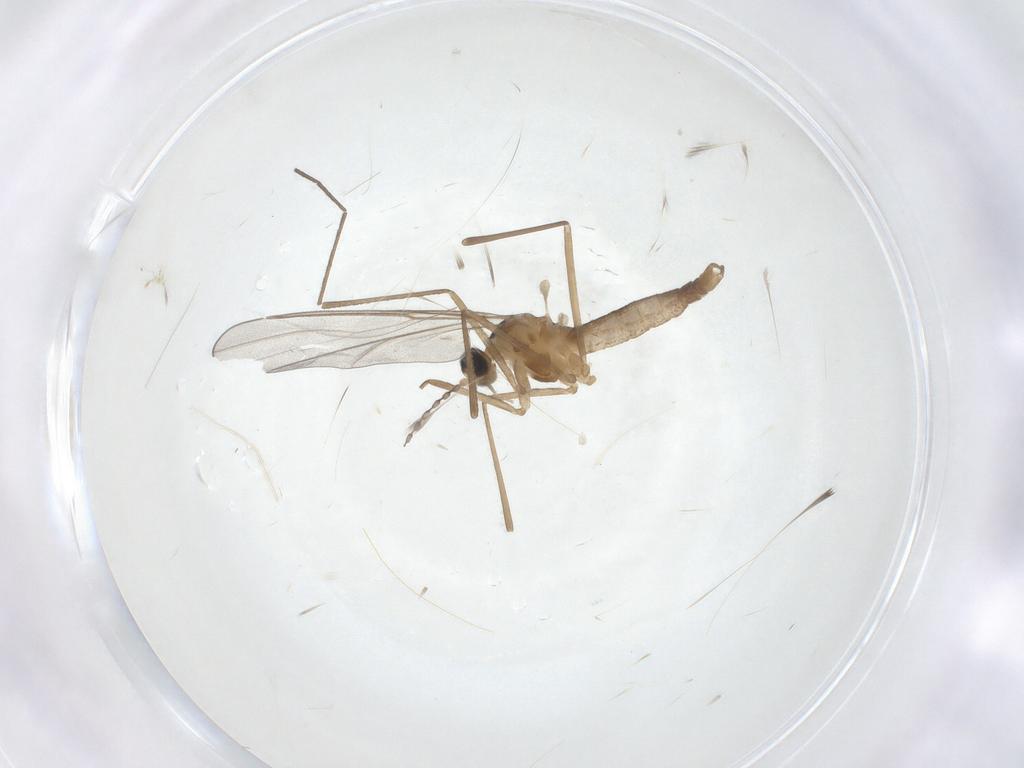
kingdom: Animalia
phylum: Arthropoda
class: Insecta
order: Diptera
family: Cecidomyiidae
